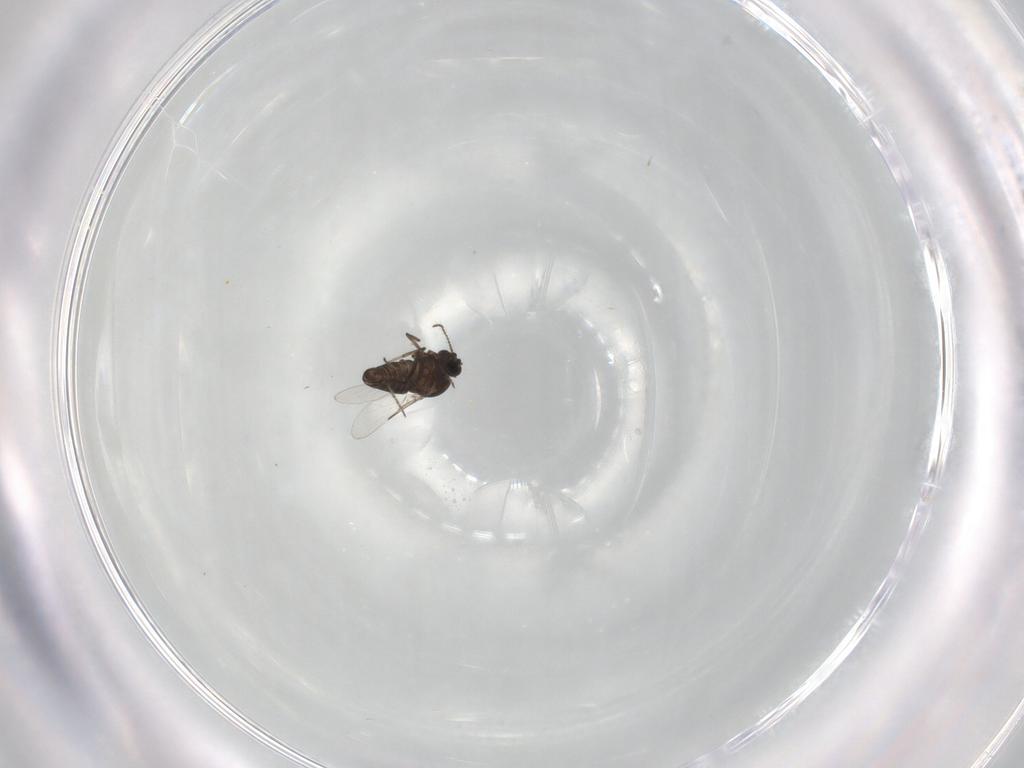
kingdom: Animalia
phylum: Arthropoda
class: Insecta
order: Diptera
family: Ceratopogonidae
